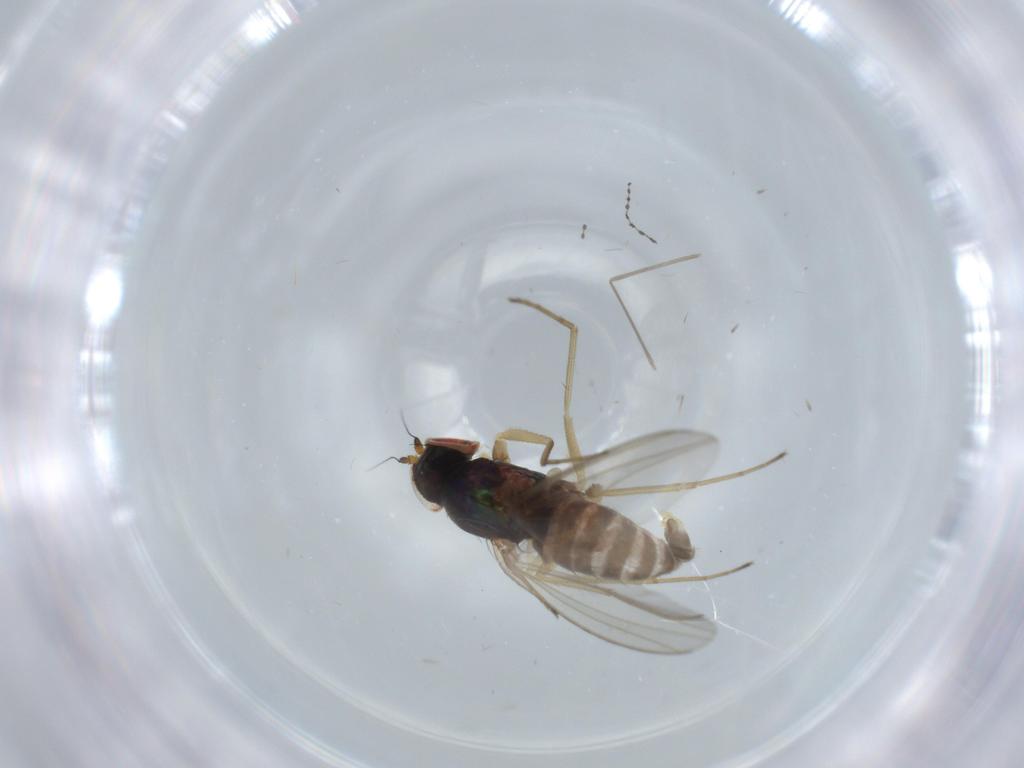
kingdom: Animalia
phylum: Arthropoda
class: Insecta
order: Diptera
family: Cecidomyiidae
